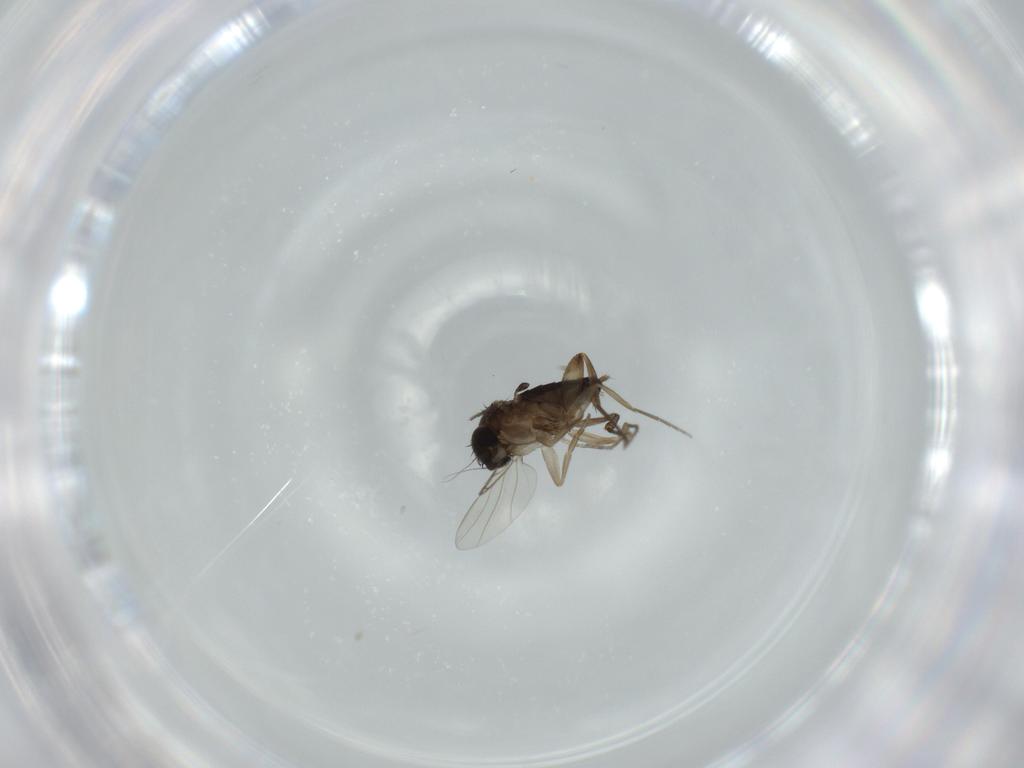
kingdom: Animalia
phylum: Arthropoda
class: Insecta
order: Diptera
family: Phoridae
